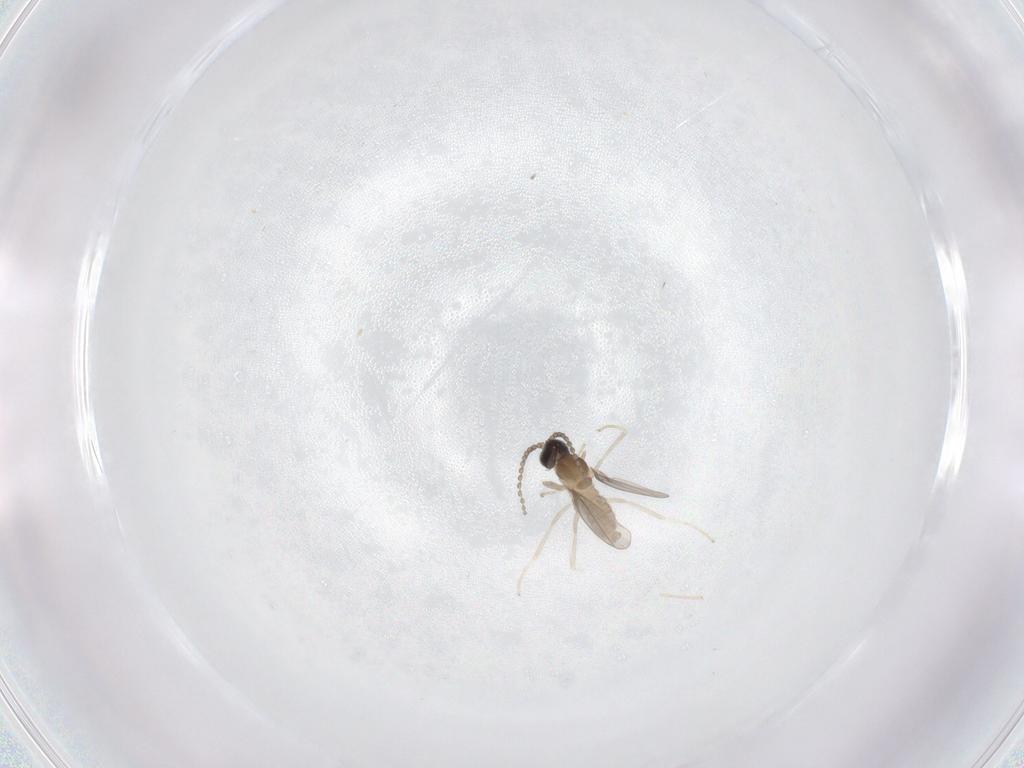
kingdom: Animalia
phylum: Arthropoda
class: Insecta
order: Diptera
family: Cecidomyiidae
